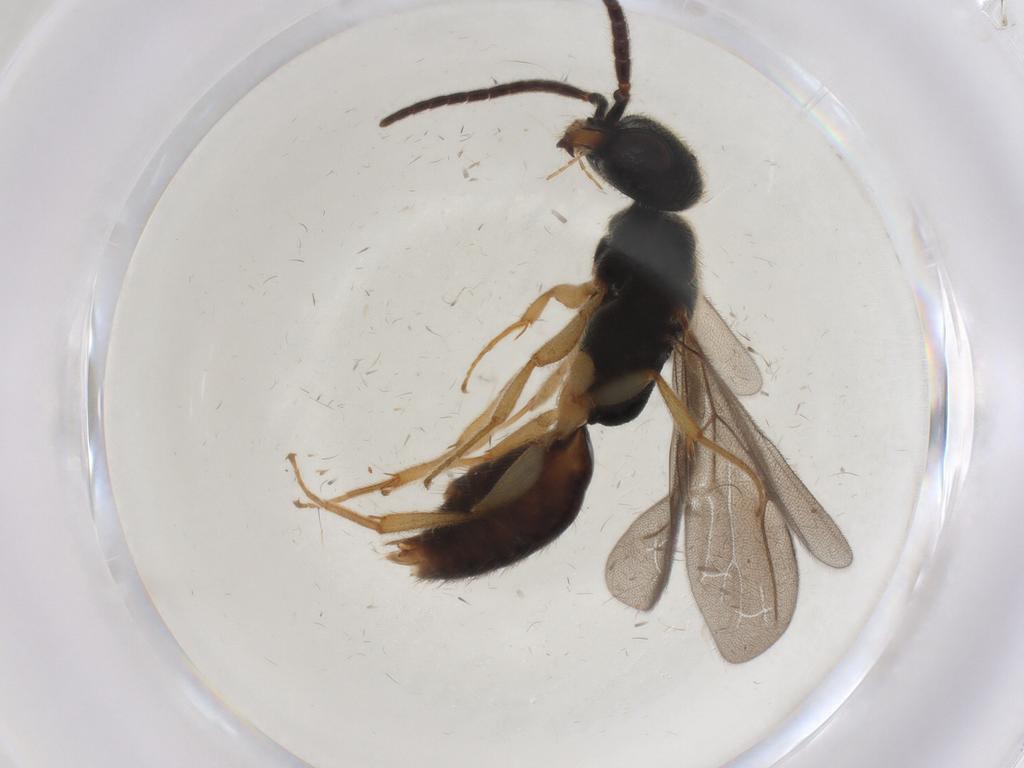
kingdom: Animalia
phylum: Arthropoda
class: Insecta
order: Hymenoptera
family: Bethylidae
